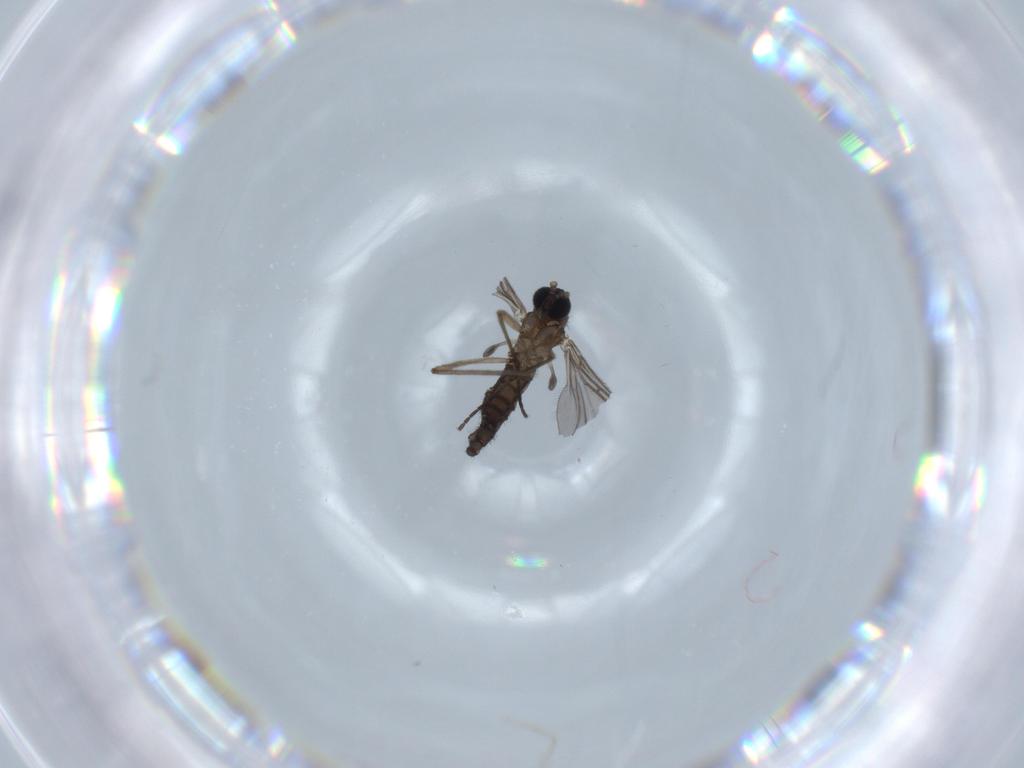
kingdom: Animalia
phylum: Arthropoda
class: Insecta
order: Diptera
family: Sciaridae
